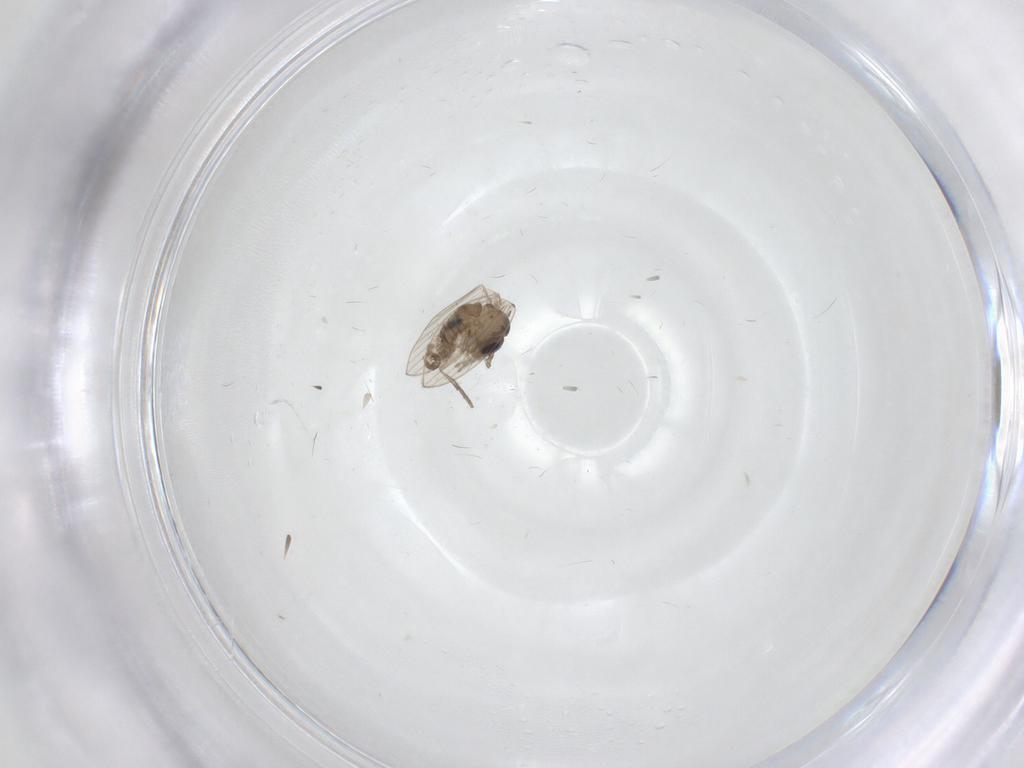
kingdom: Animalia
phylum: Arthropoda
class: Insecta
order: Diptera
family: Psychodidae
